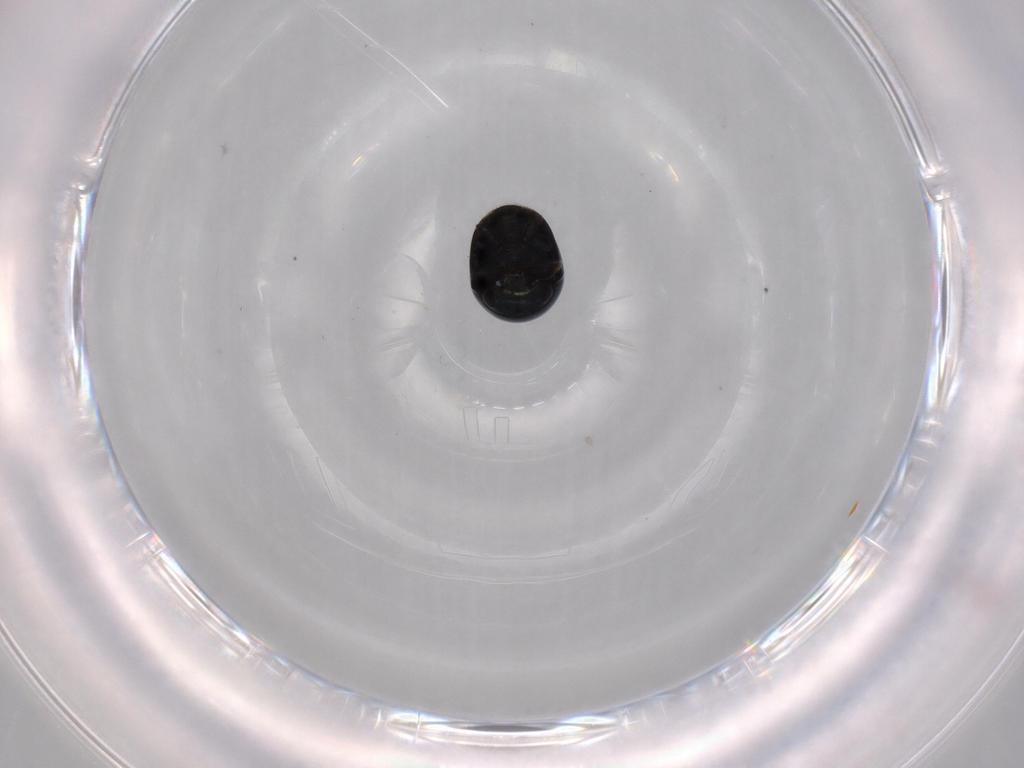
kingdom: Animalia
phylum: Arthropoda
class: Insecta
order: Coleoptera
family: Cybocephalidae
